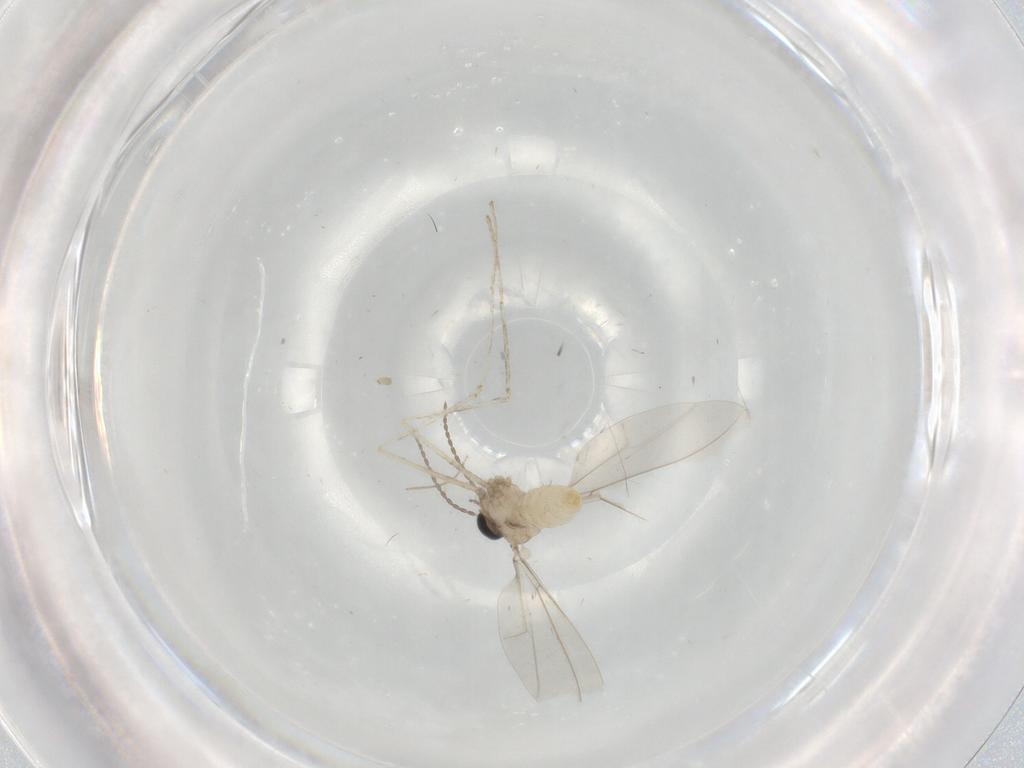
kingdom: Animalia
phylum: Arthropoda
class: Insecta
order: Diptera
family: Cecidomyiidae
